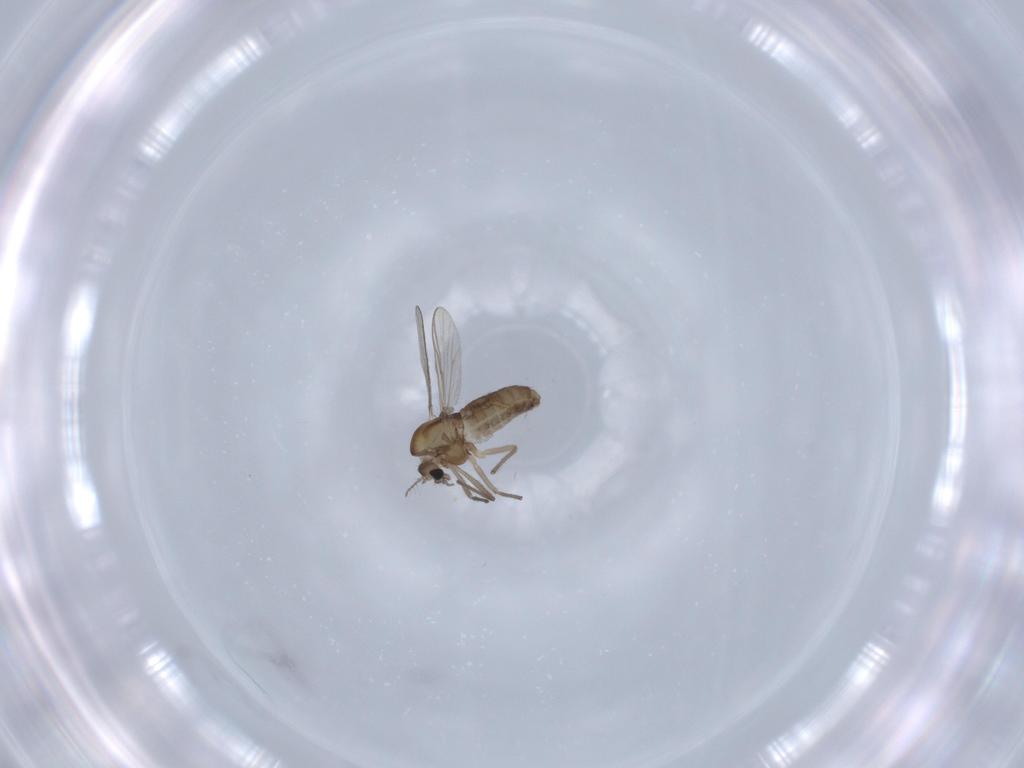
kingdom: Animalia
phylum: Arthropoda
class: Insecta
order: Diptera
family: Chironomidae
